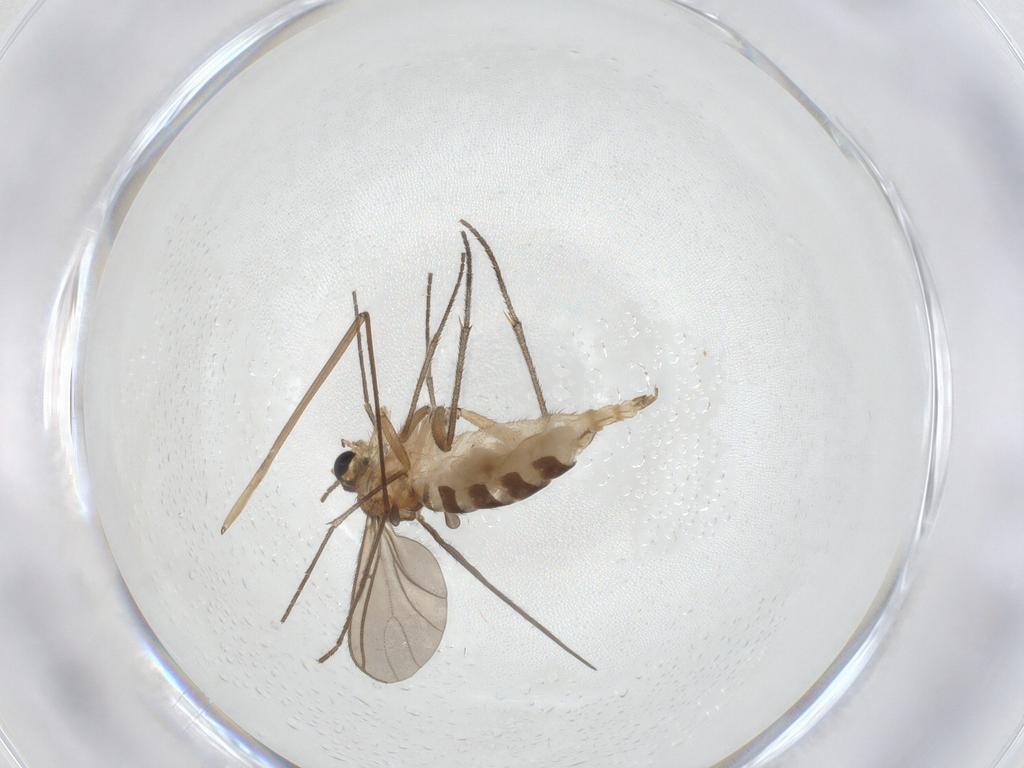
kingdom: Animalia
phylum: Arthropoda
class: Insecta
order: Diptera
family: Sciaridae
